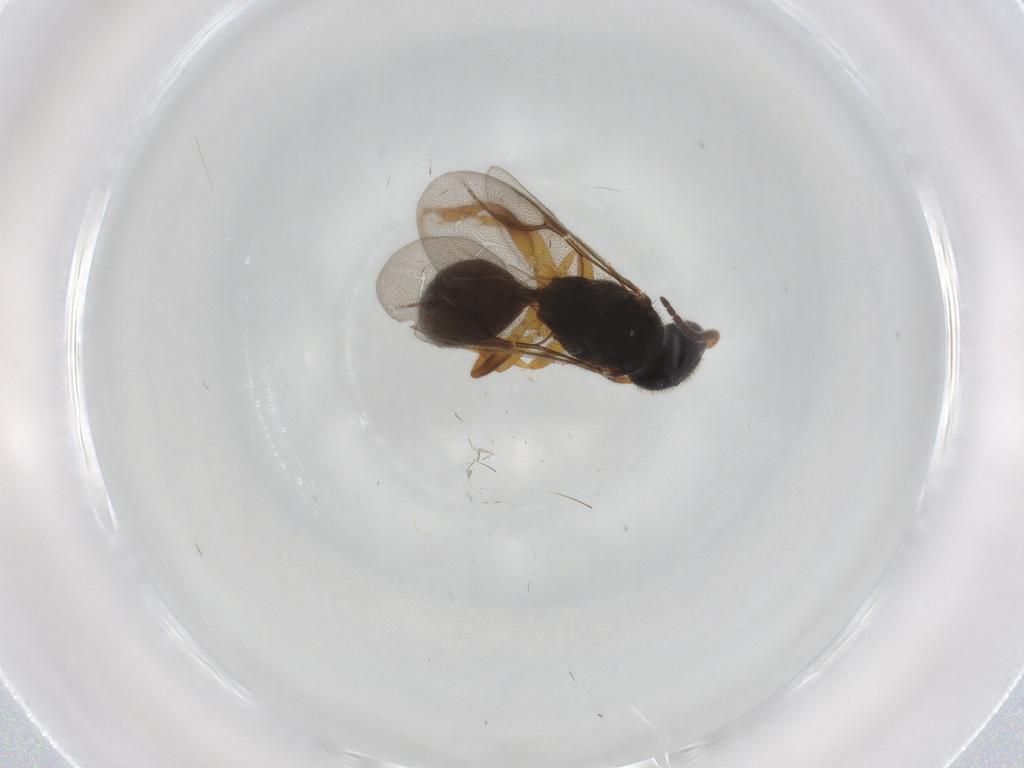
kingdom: Animalia
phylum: Arthropoda
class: Insecta
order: Hymenoptera
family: Bethylidae
